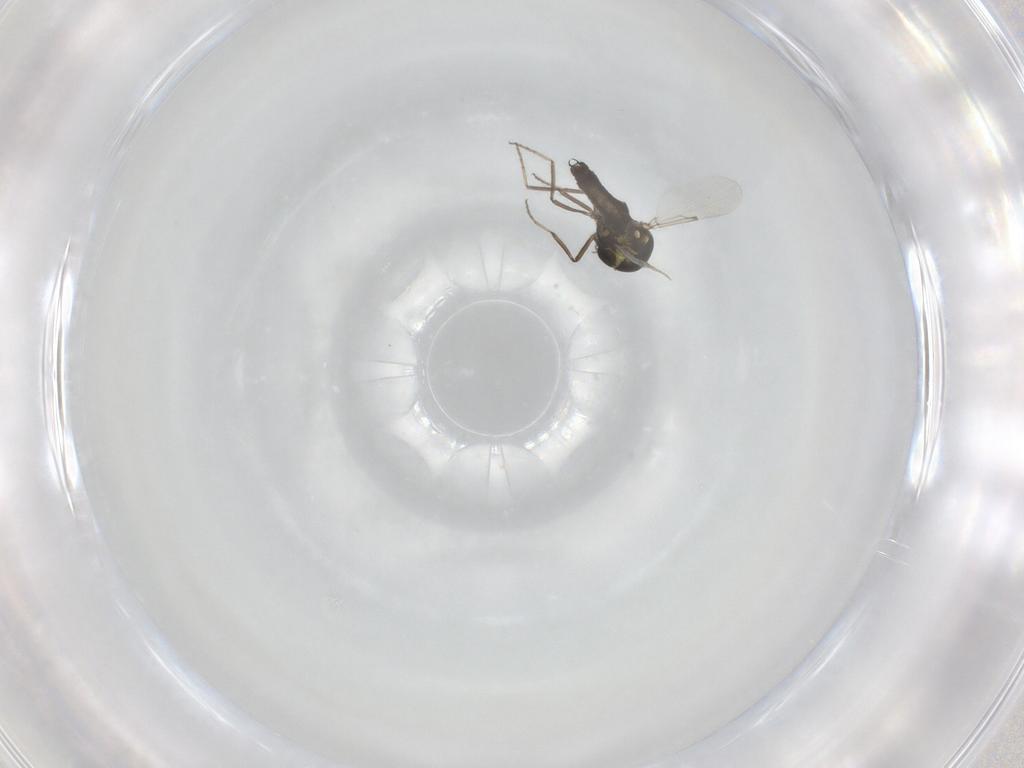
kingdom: Animalia
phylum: Arthropoda
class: Insecta
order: Diptera
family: Ceratopogonidae
